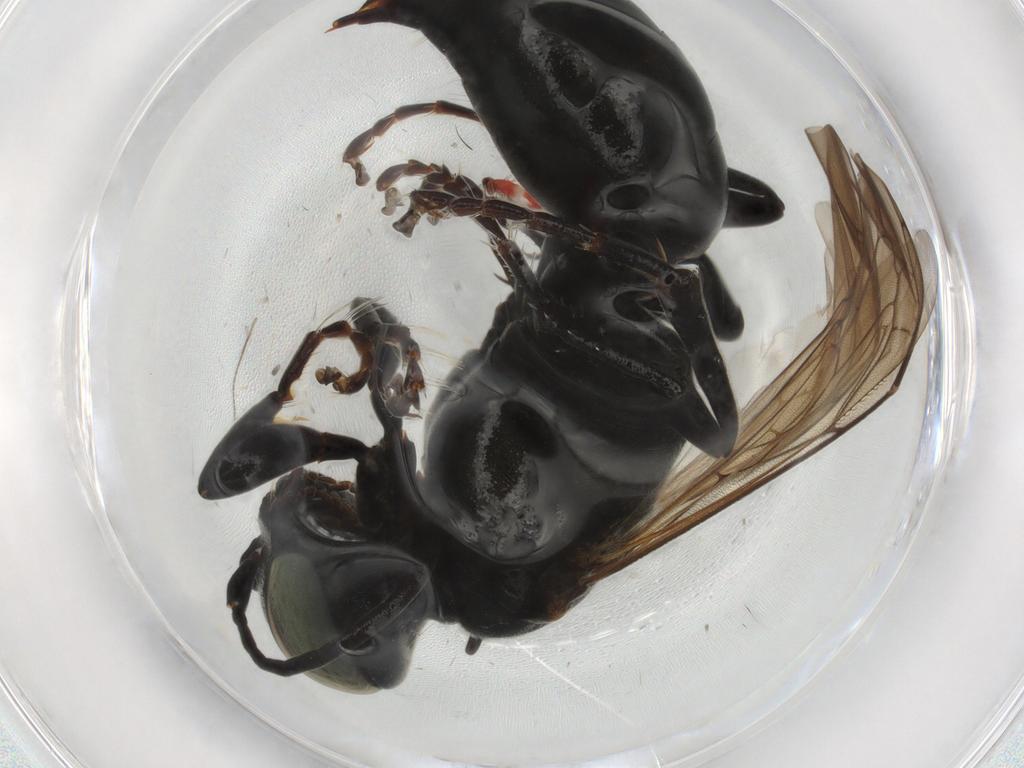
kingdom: Animalia
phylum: Arthropoda
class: Insecta
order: Hymenoptera
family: Crabronidae
